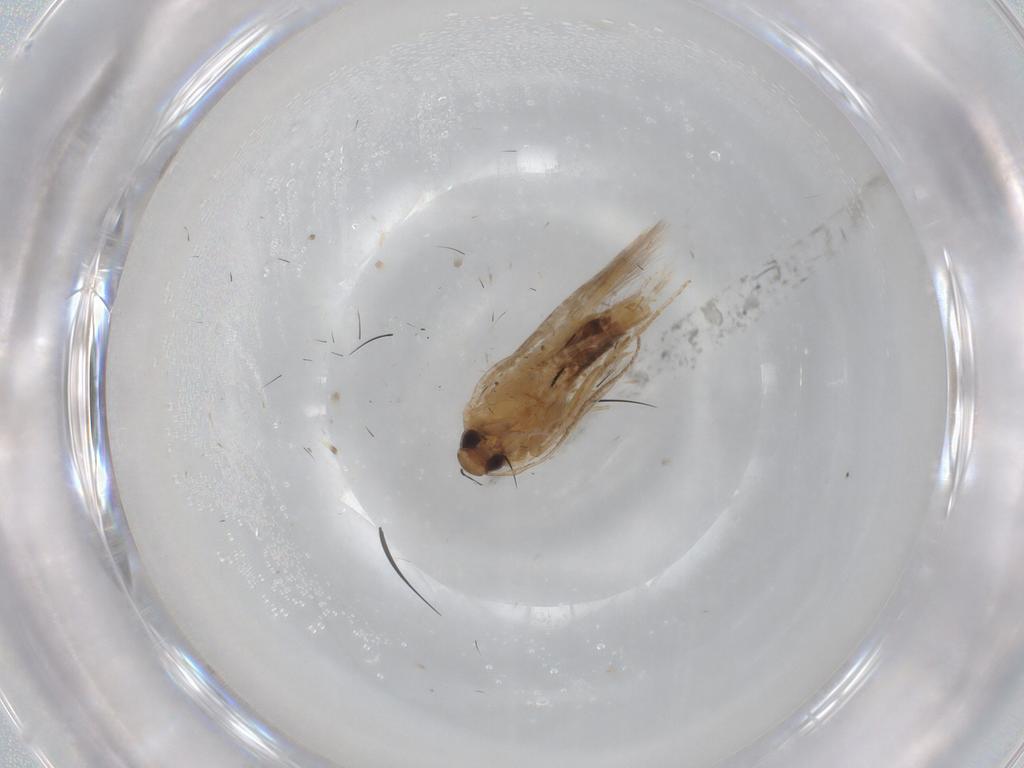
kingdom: Animalia
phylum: Arthropoda
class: Insecta
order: Lepidoptera
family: Cosmopterigidae
